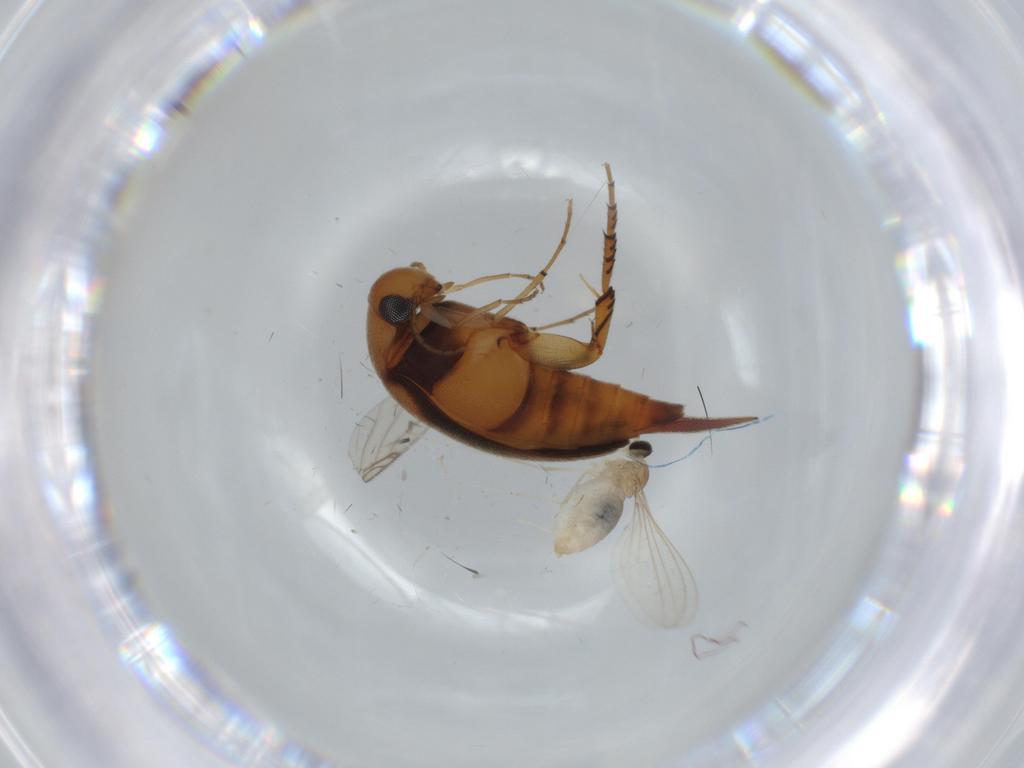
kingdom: Animalia
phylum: Arthropoda
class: Insecta
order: Coleoptera
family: Mordellidae
